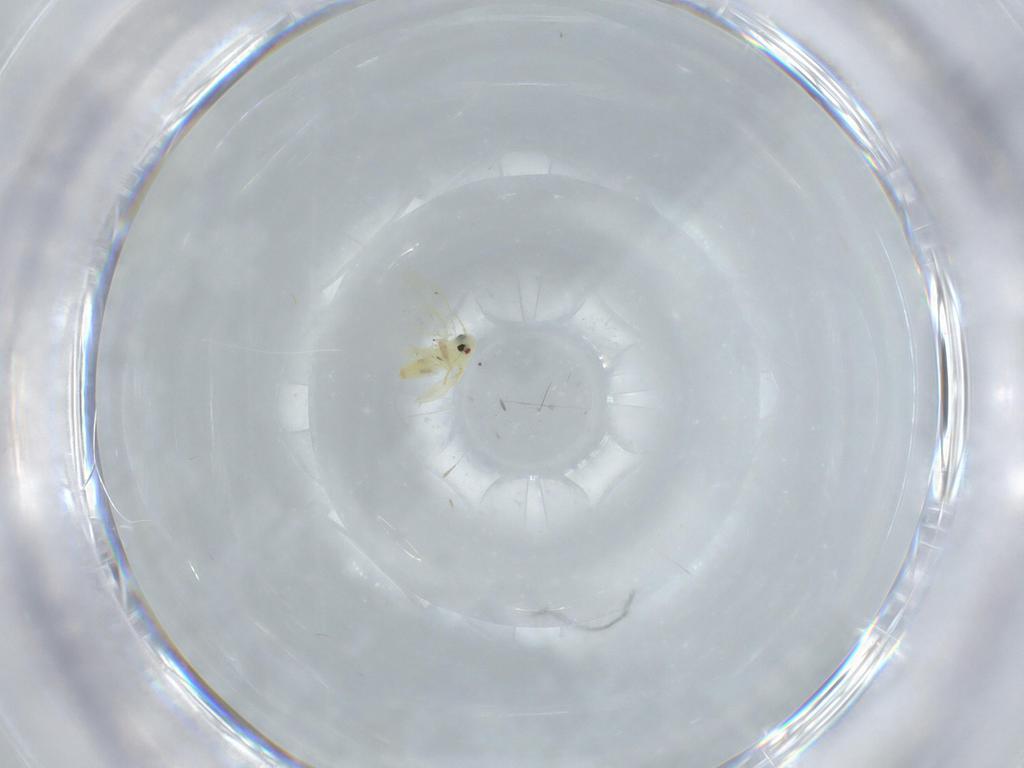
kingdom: Animalia
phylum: Arthropoda
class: Insecta
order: Diptera
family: Chironomidae
